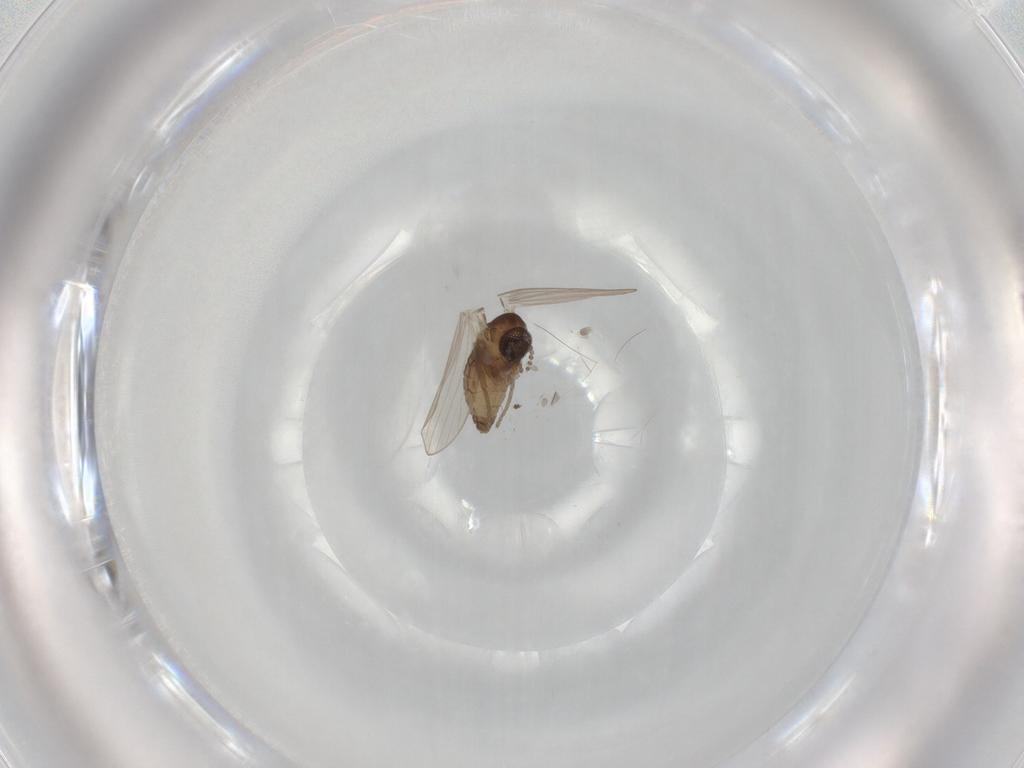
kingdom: Animalia
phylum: Arthropoda
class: Insecta
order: Diptera
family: Psychodidae
